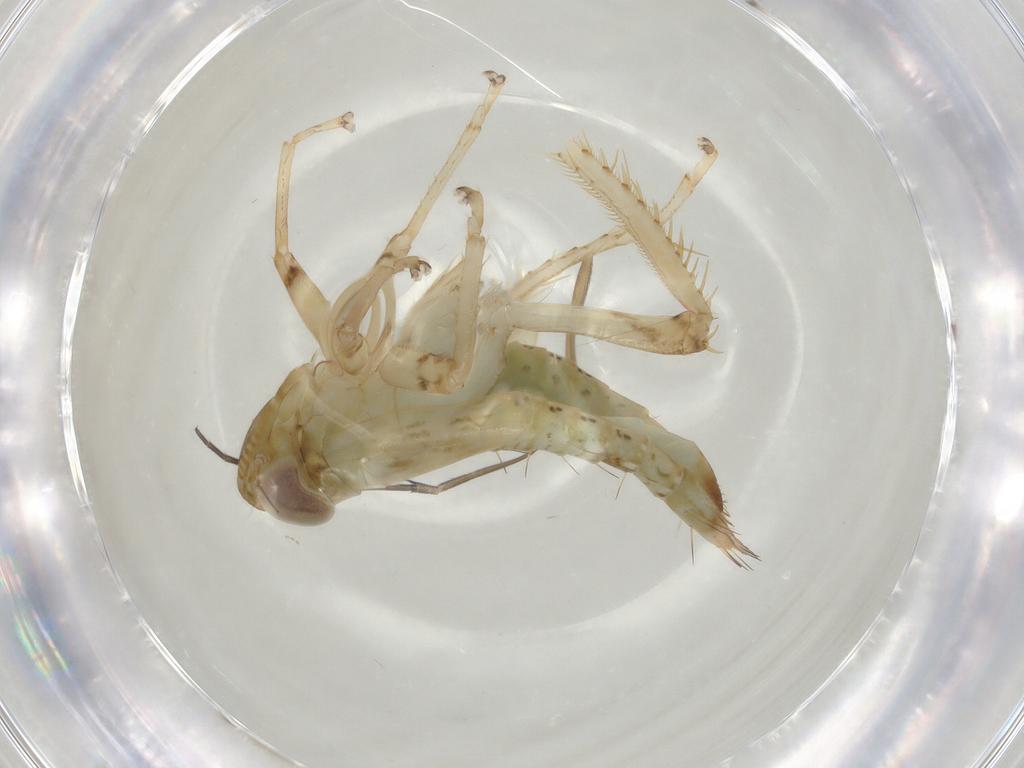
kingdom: Animalia
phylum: Arthropoda
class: Insecta
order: Hemiptera
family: Cicadellidae
